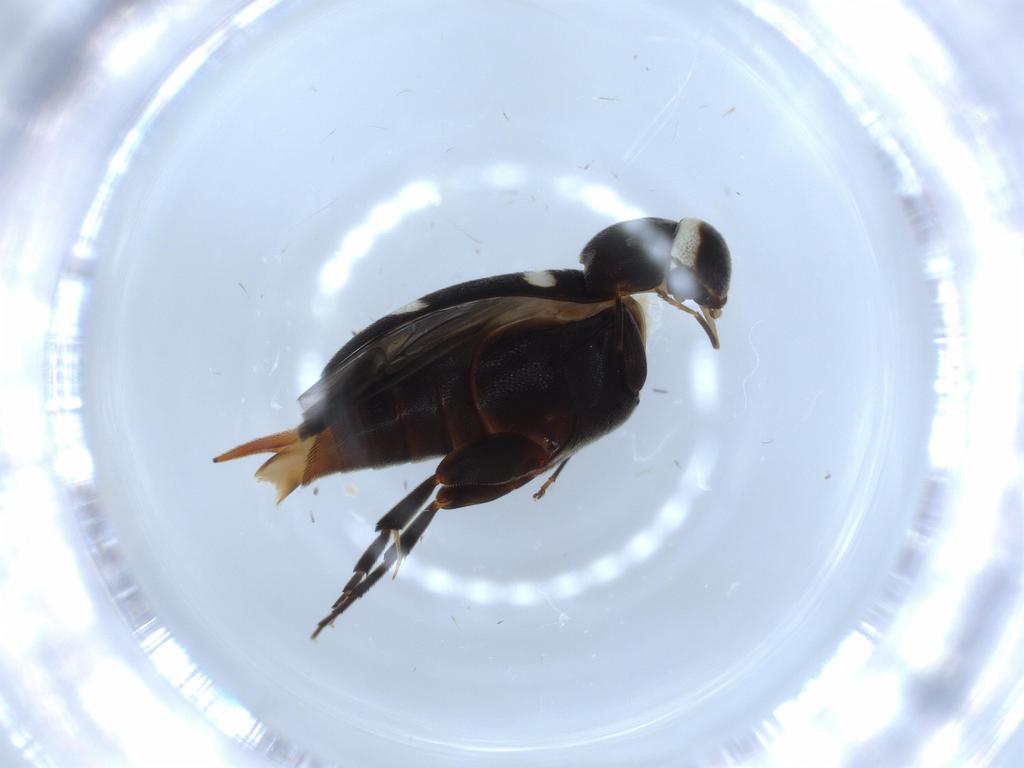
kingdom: Animalia
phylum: Arthropoda
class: Insecta
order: Coleoptera
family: Mordellidae
